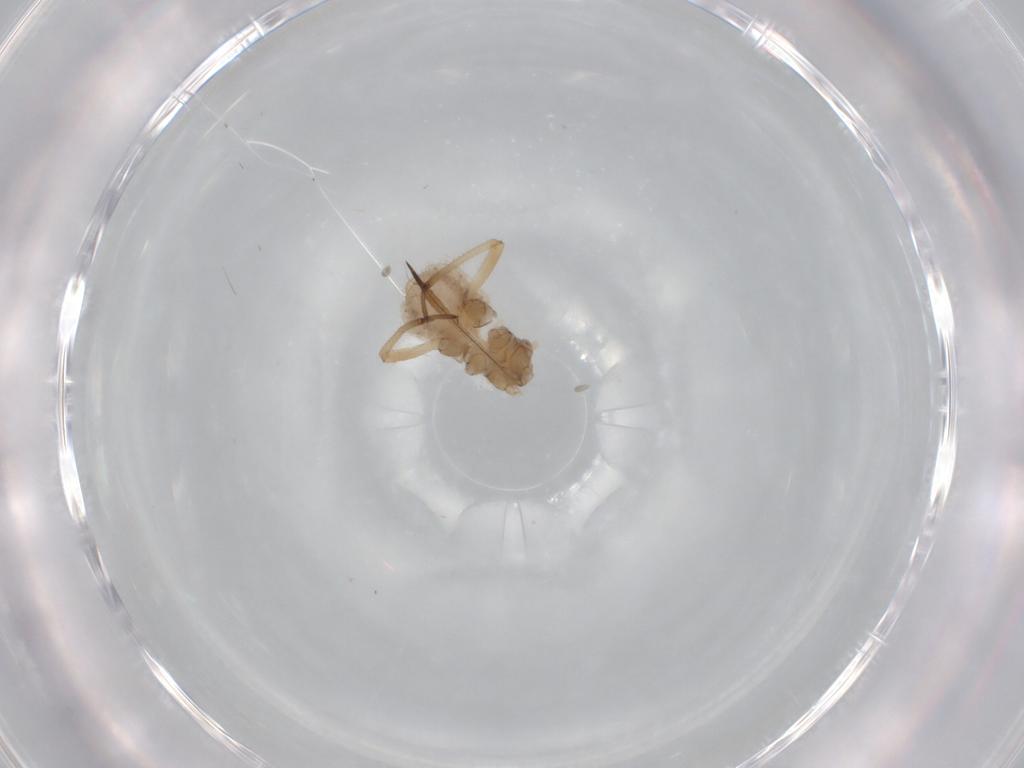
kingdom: Animalia
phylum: Arthropoda
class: Insecta
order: Hemiptera
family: Aphididae
